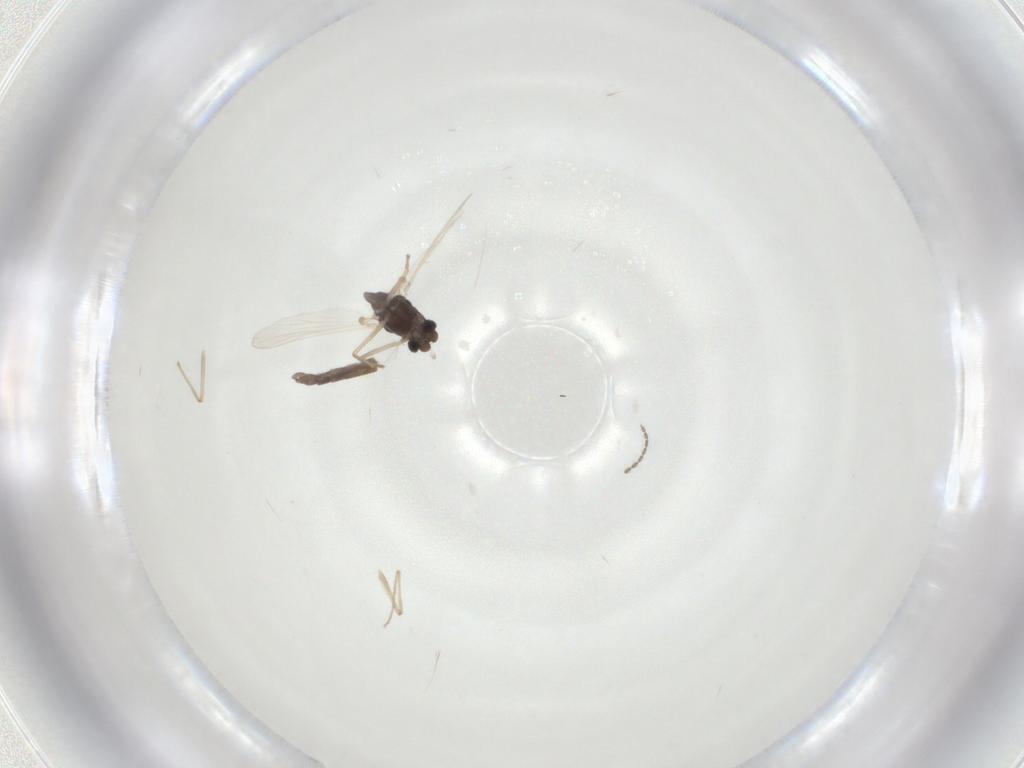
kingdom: Animalia
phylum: Arthropoda
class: Insecta
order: Diptera
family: Chironomidae
